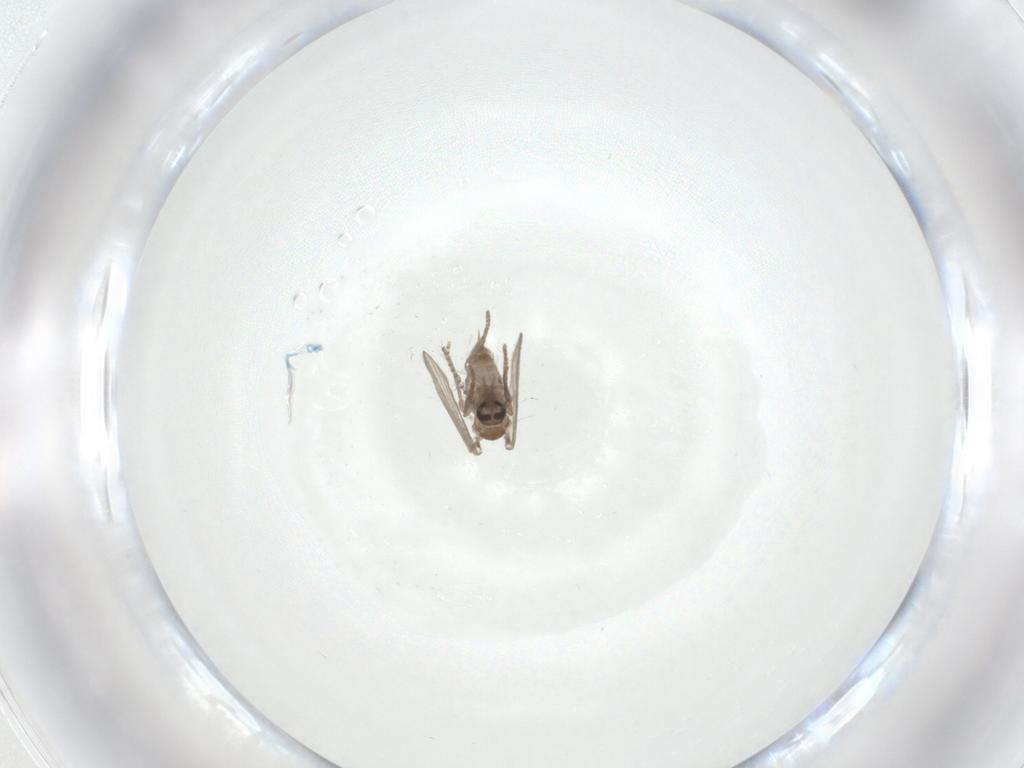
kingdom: Animalia
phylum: Arthropoda
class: Insecta
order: Diptera
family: Psychodidae
